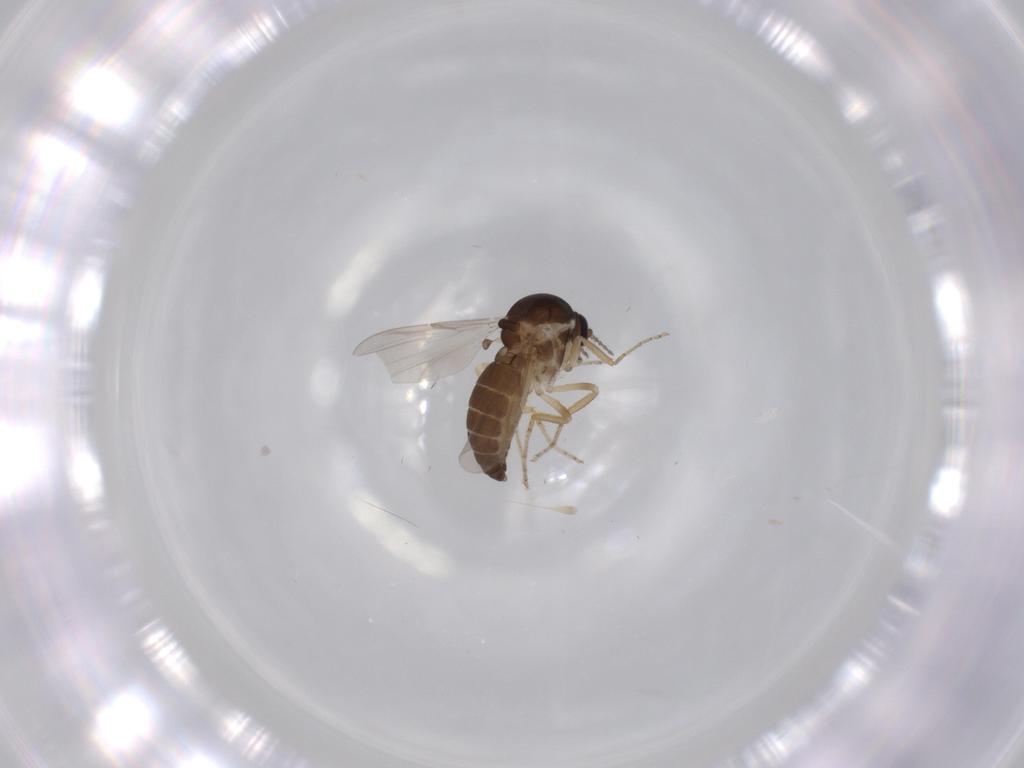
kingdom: Animalia
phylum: Arthropoda
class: Insecta
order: Diptera
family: Ceratopogonidae
